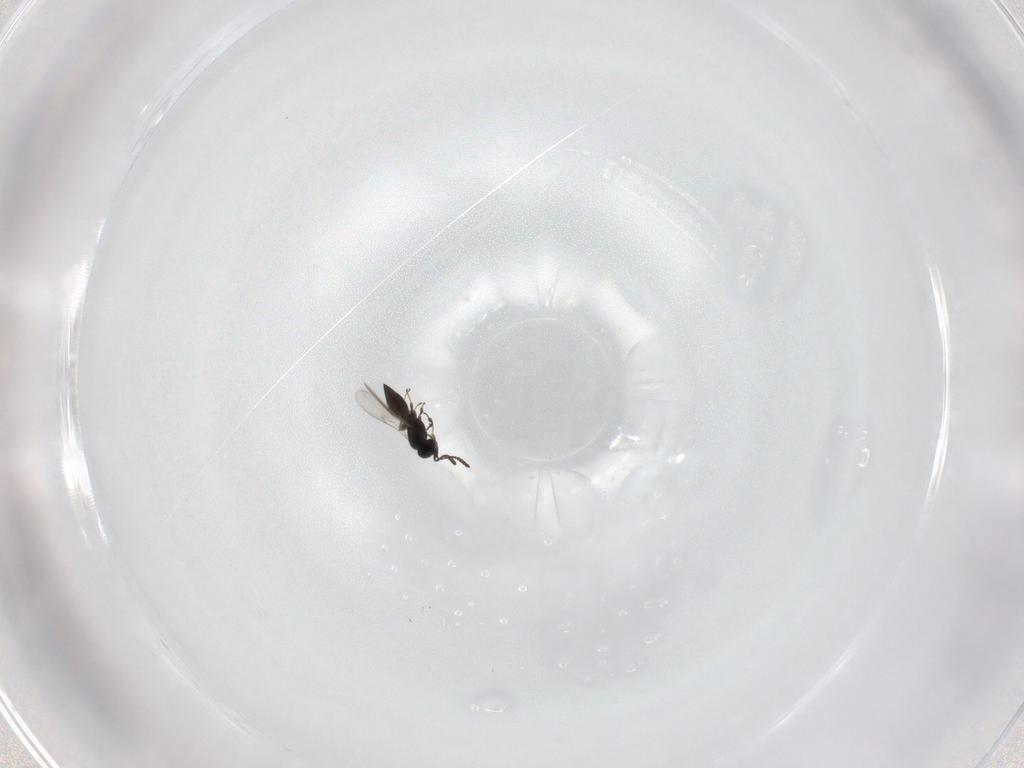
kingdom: Animalia
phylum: Arthropoda
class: Insecta
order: Hymenoptera
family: Scelionidae
